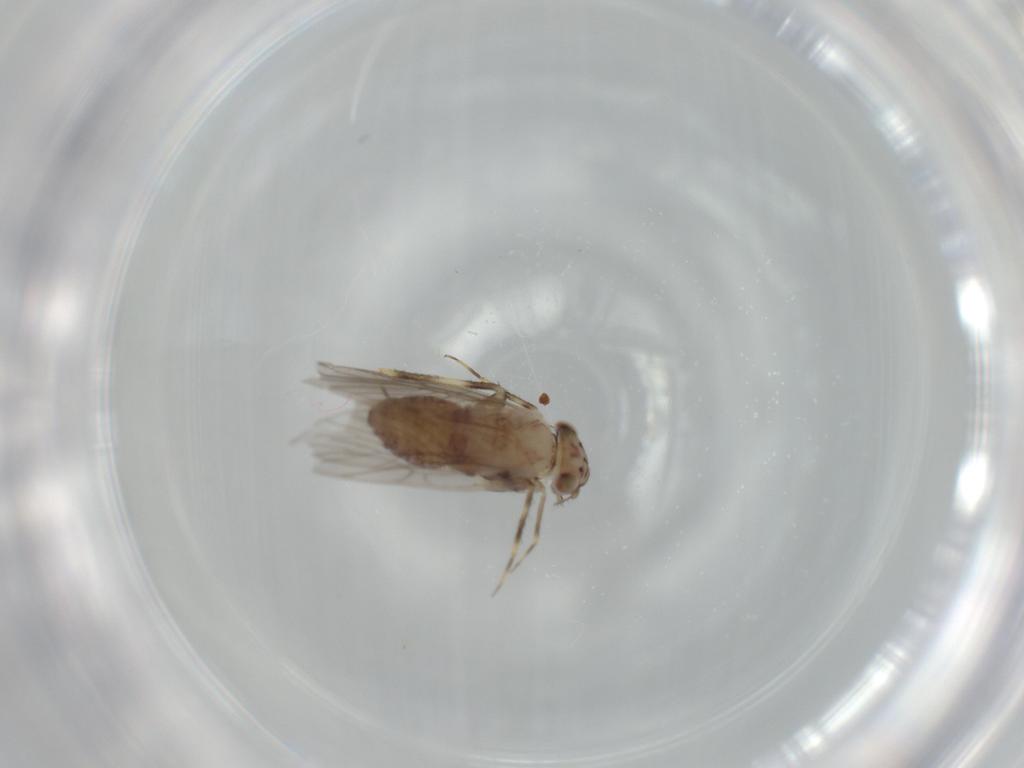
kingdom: Animalia
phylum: Arthropoda
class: Insecta
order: Psocodea
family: Lepidopsocidae
